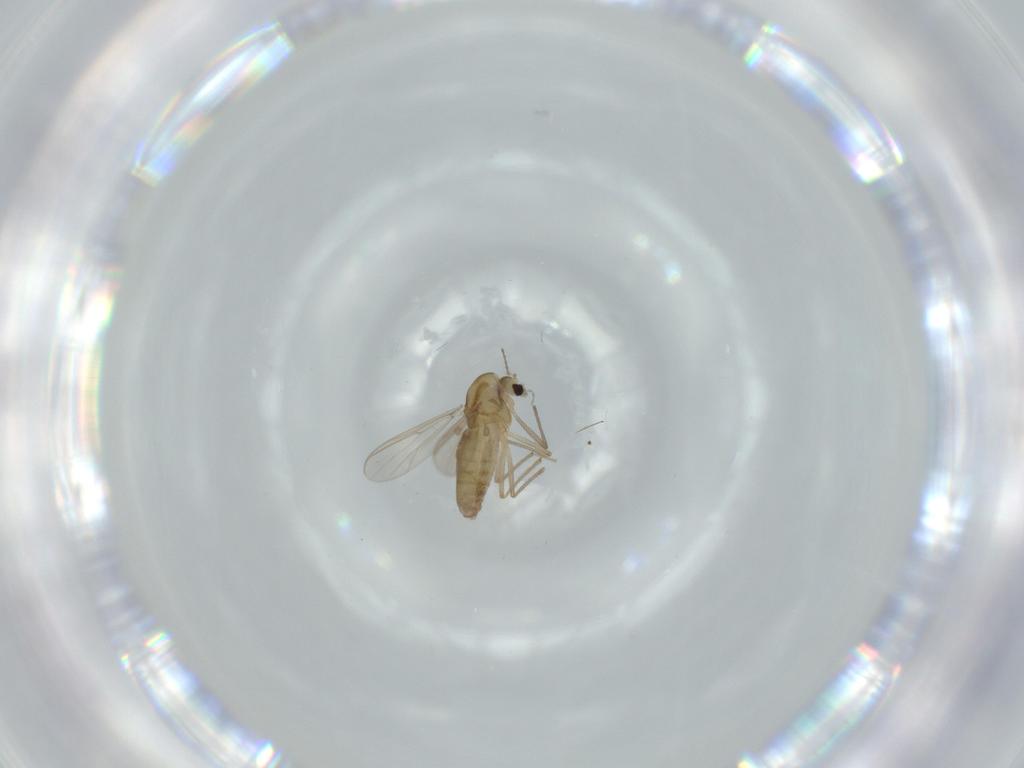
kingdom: Animalia
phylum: Arthropoda
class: Insecta
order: Diptera
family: Chironomidae
